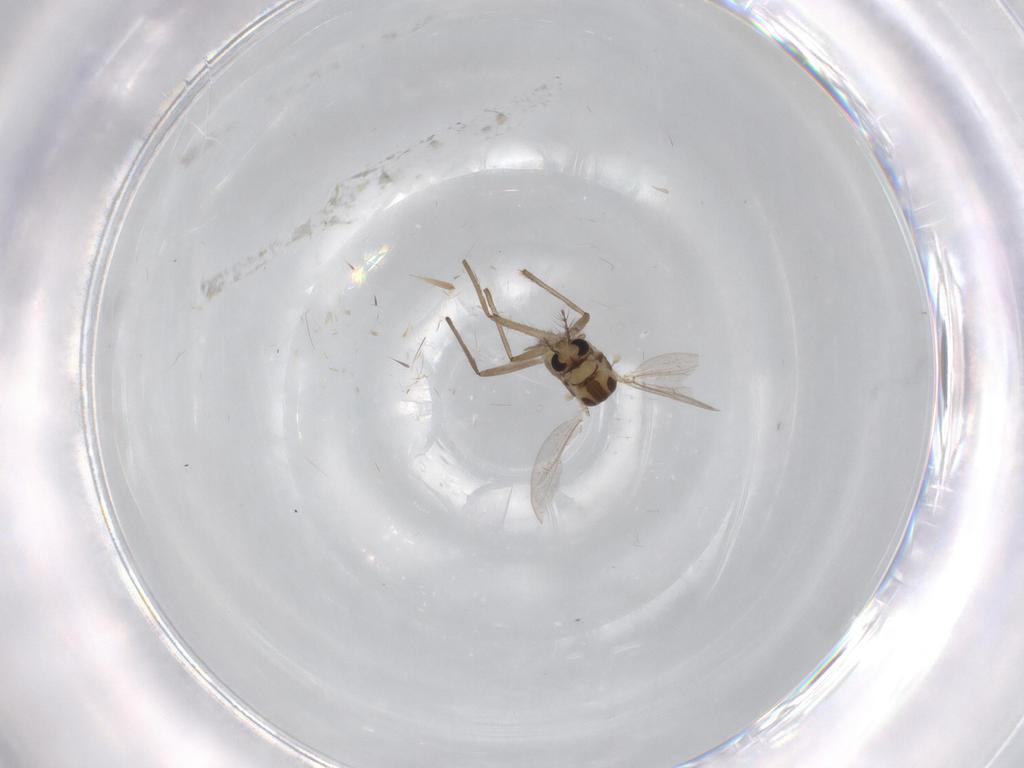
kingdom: Animalia
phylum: Arthropoda
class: Insecta
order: Diptera
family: Chironomidae
